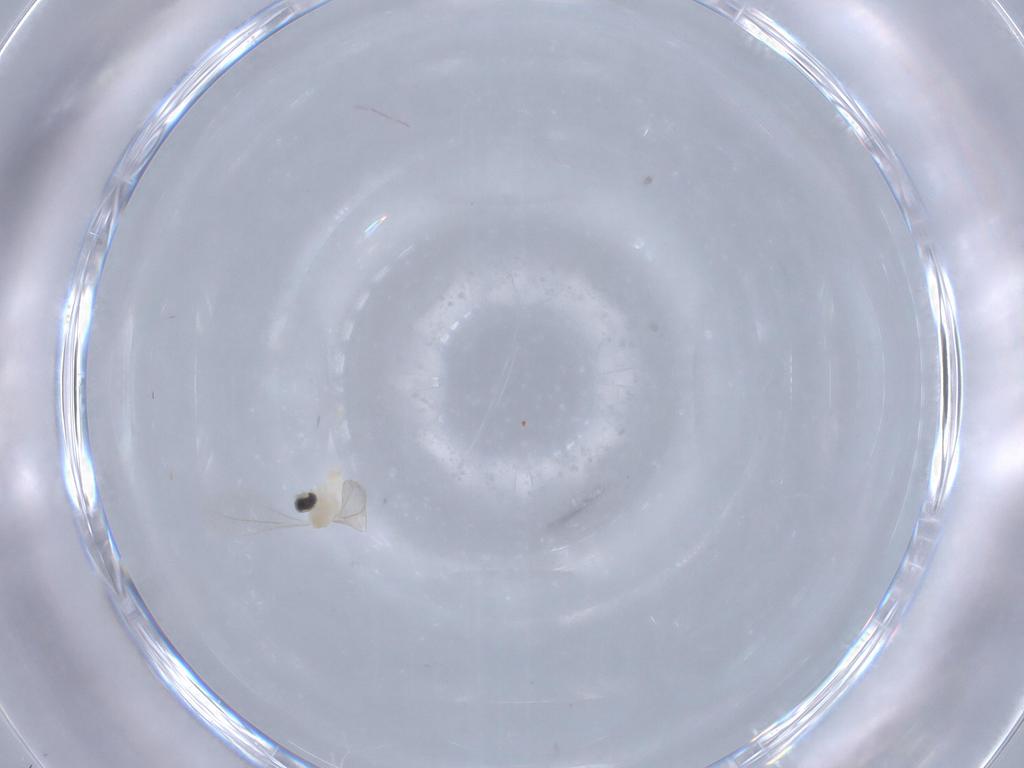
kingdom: Animalia
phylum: Arthropoda
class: Insecta
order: Diptera
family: Cecidomyiidae
